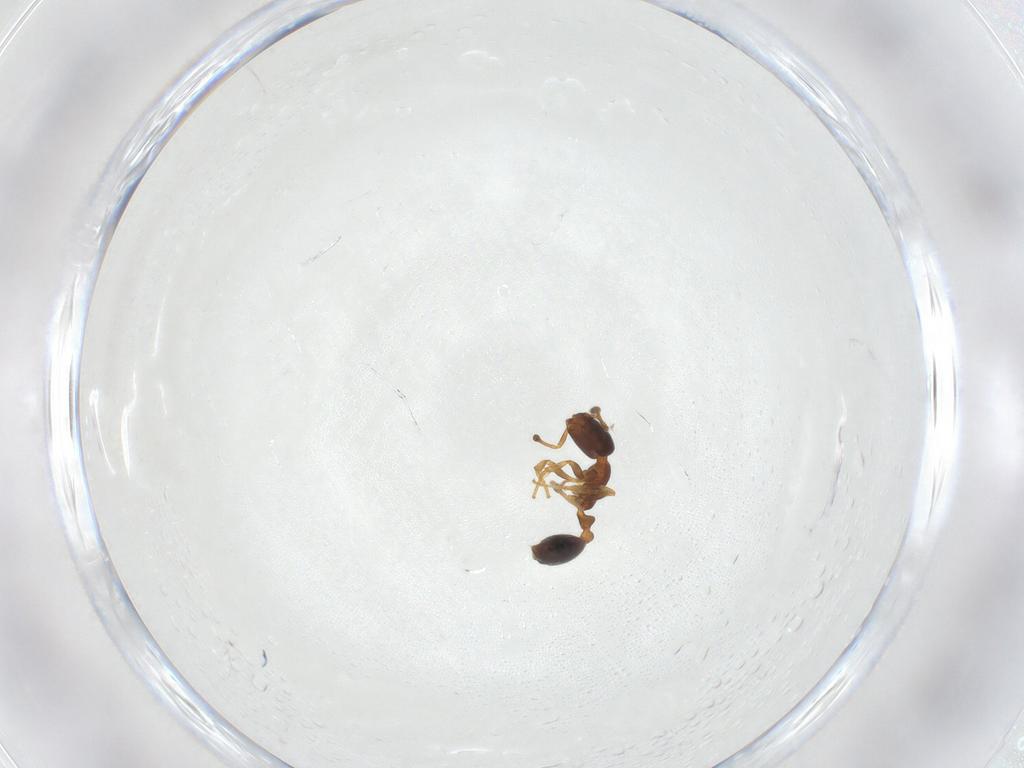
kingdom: Animalia
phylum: Arthropoda
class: Insecta
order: Hymenoptera
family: Formicidae
